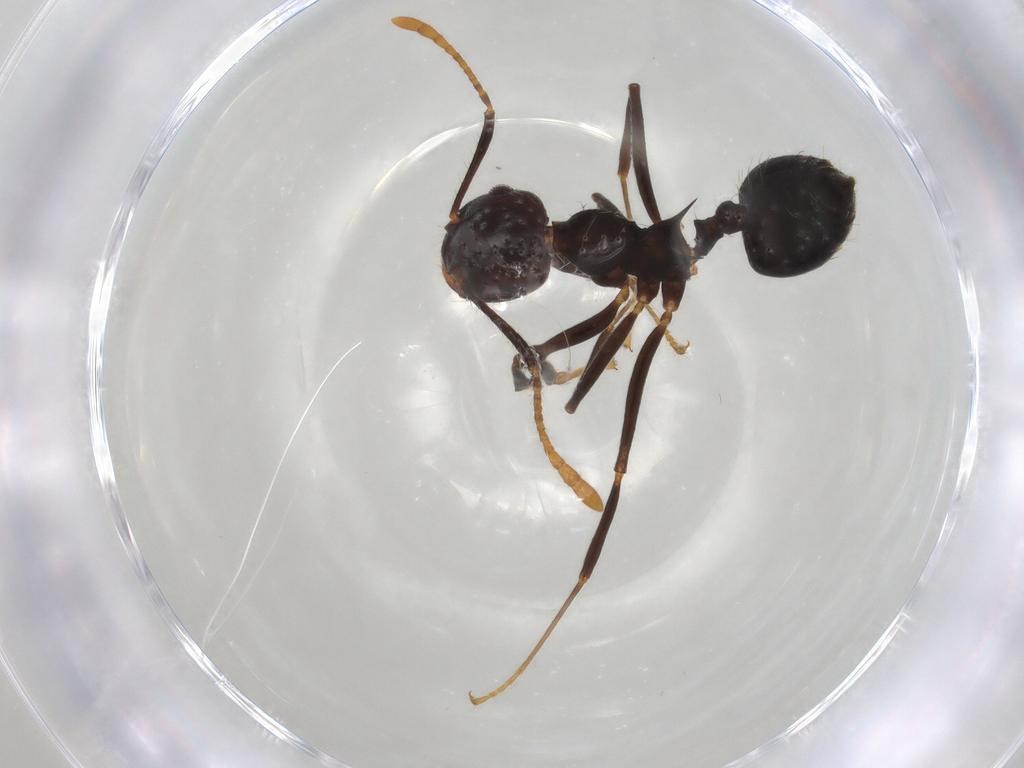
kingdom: Animalia
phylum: Arthropoda
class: Insecta
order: Hymenoptera
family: Formicidae
